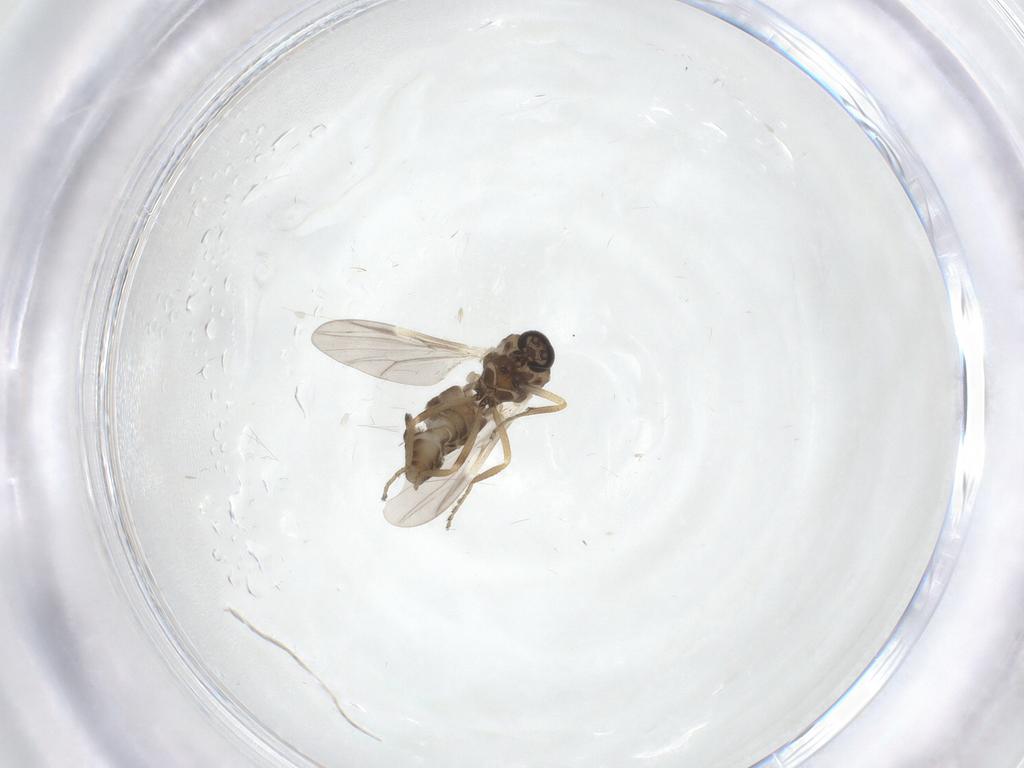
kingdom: Animalia
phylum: Arthropoda
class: Insecta
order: Diptera
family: Ceratopogonidae
